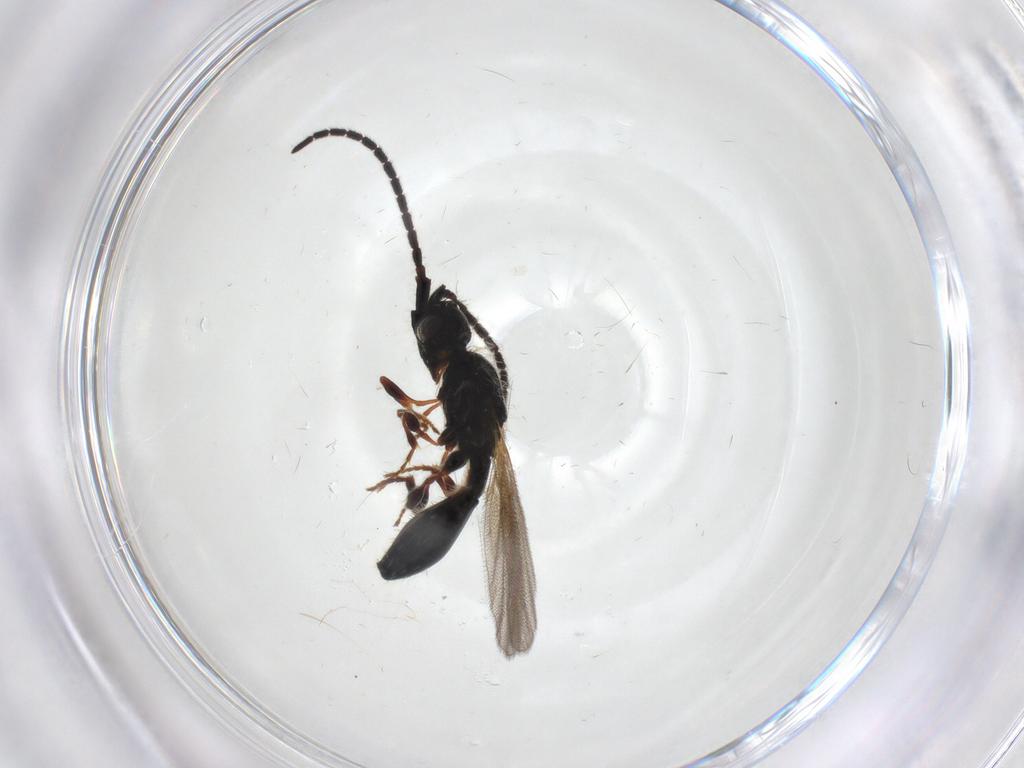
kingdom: Animalia
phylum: Arthropoda
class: Insecta
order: Hymenoptera
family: Diapriidae
